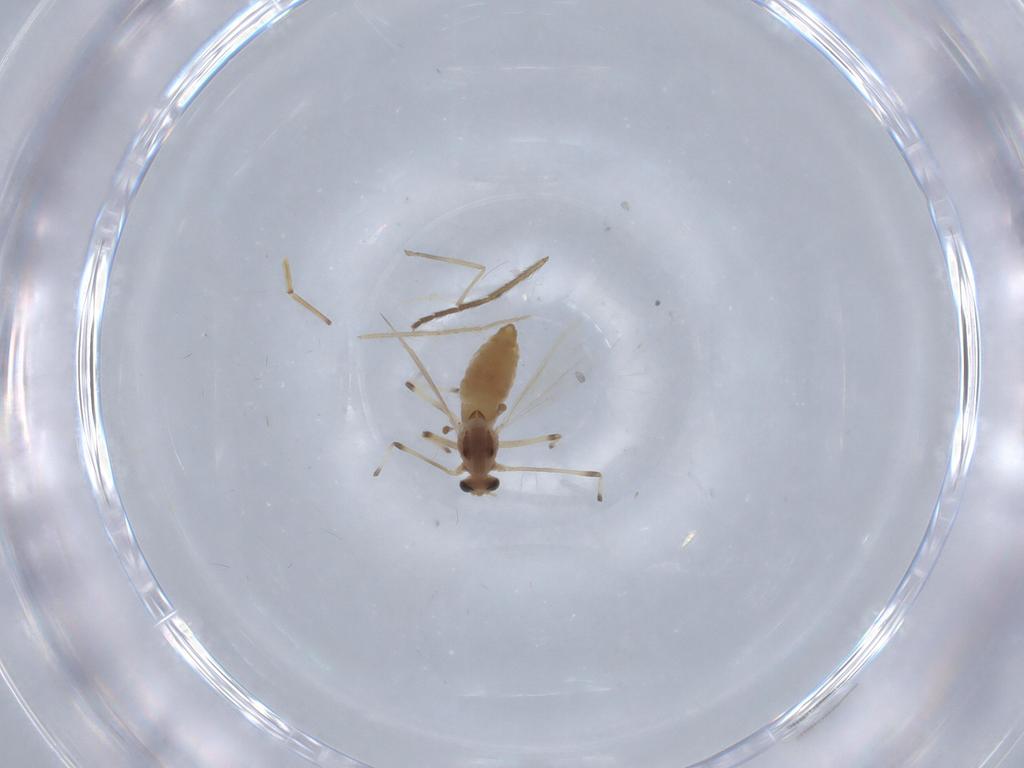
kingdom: Animalia
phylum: Arthropoda
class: Insecta
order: Diptera
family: Chironomidae
